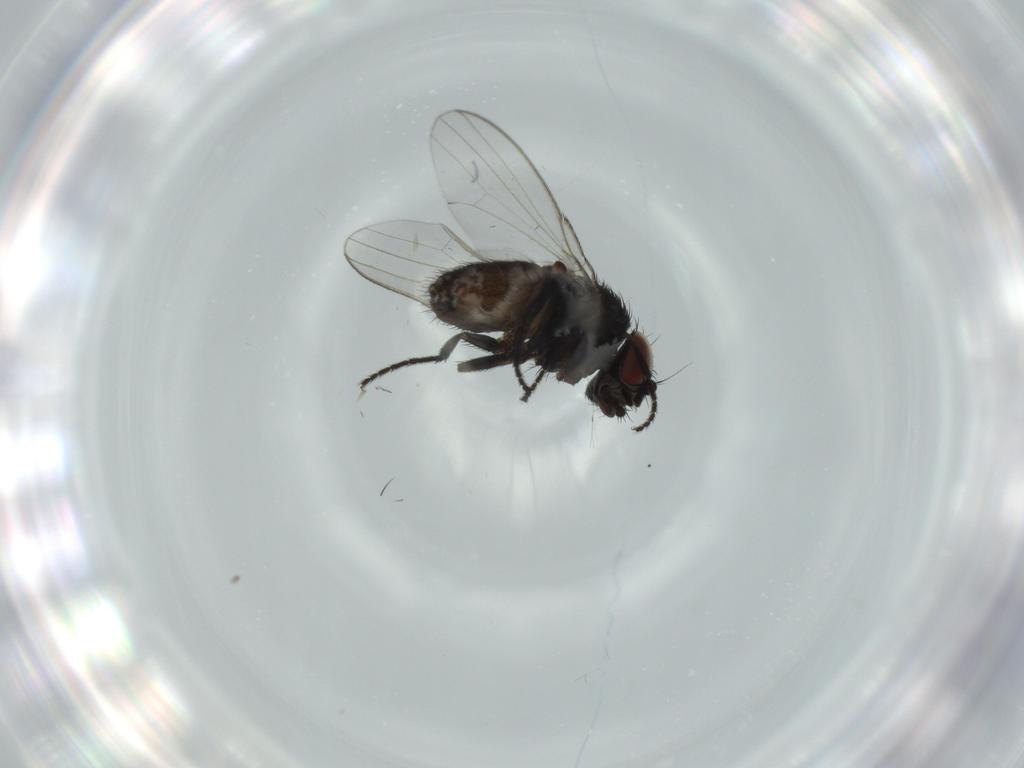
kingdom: Animalia
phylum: Arthropoda
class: Insecta
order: Diptera
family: Milichiidae
